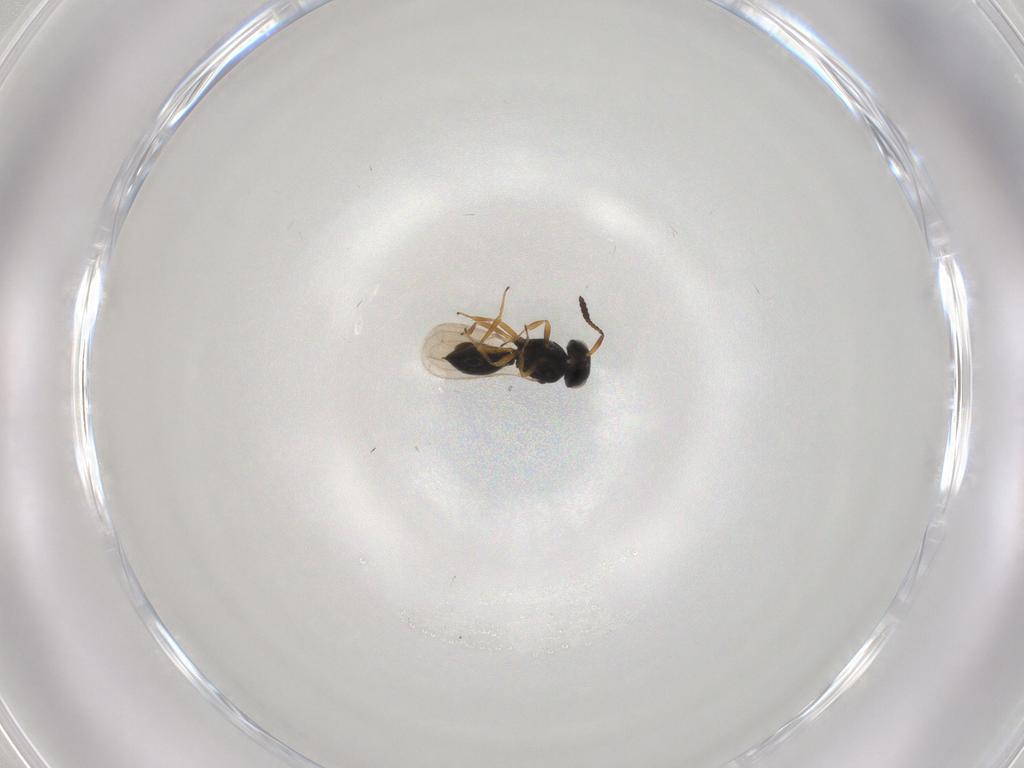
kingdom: Animalia
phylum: Arthropoda
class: Insecta
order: Hymenoptera
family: Scelionidae
